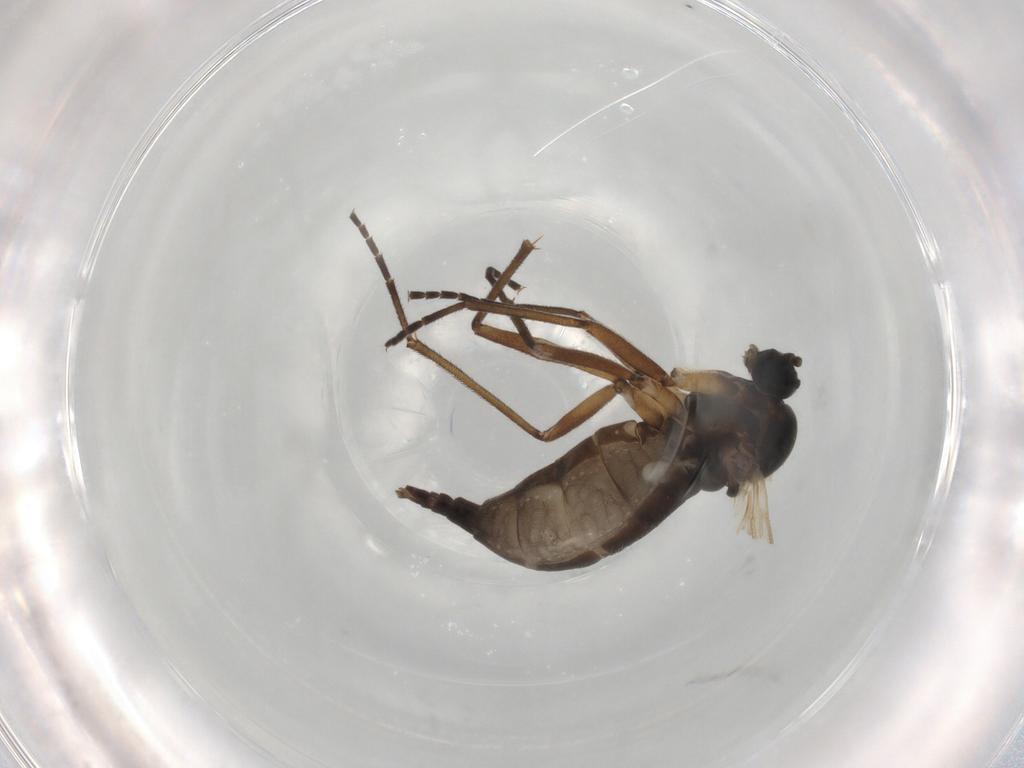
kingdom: Animalia
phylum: Arthropoda
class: Insecta
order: Diptera
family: Sciaridae
